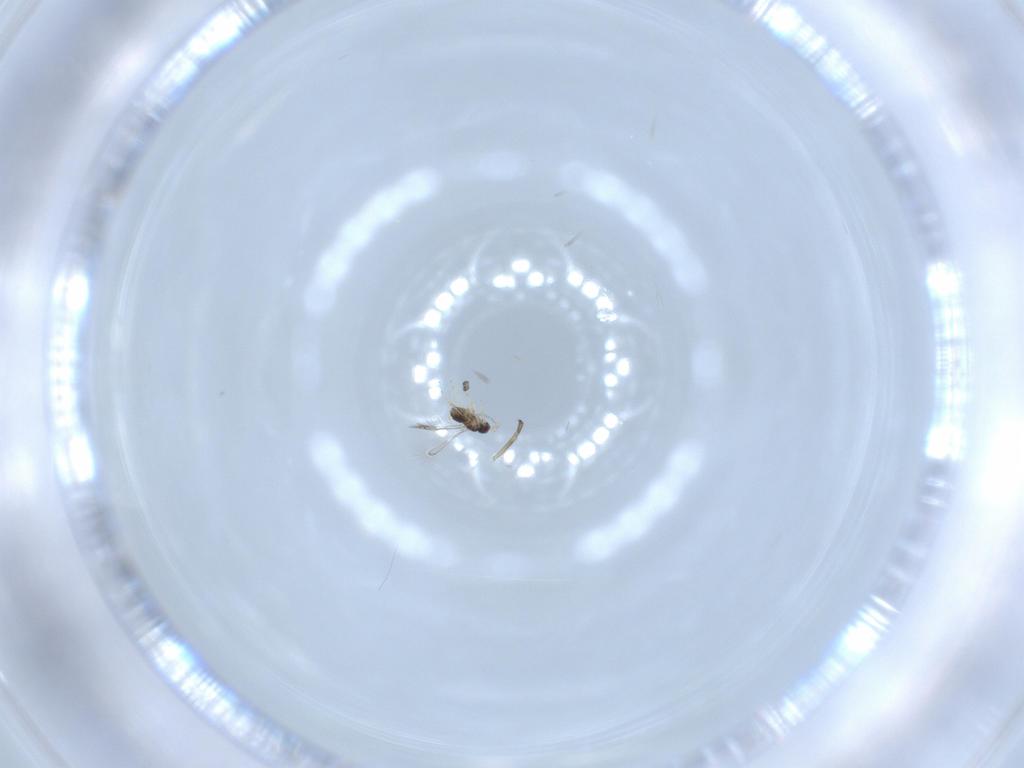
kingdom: Animalia
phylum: Arthropoda
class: Insecta
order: Hymenoptera
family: Mymaridae
